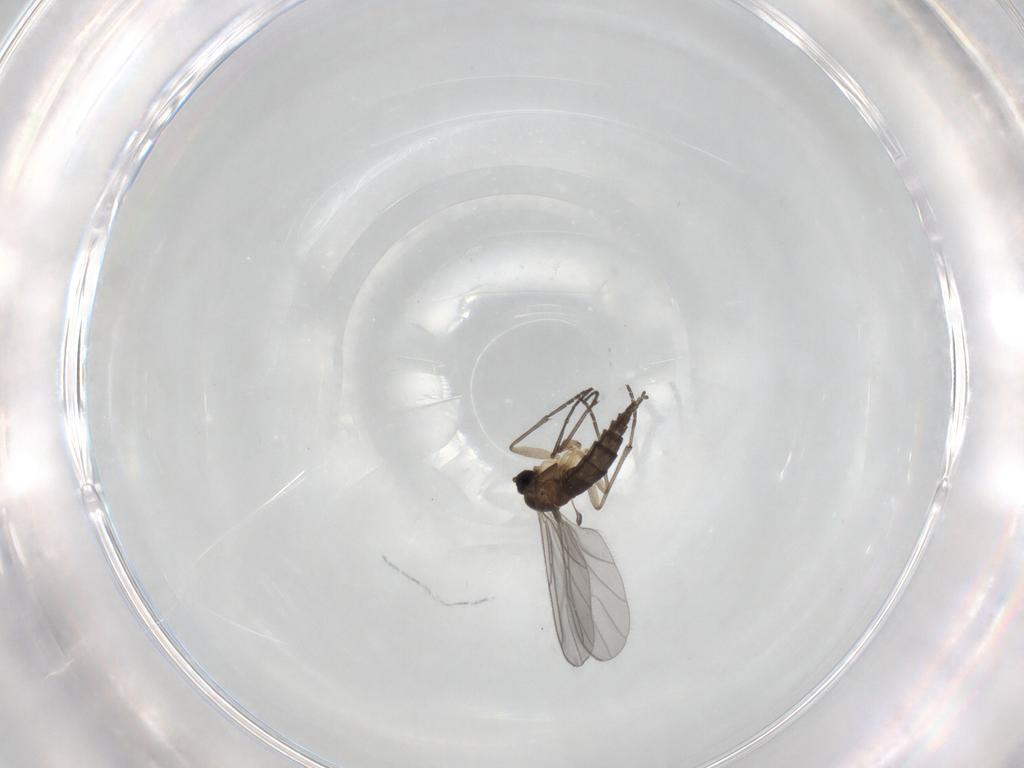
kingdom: Animalia
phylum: Arthropoda
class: Insecta
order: Diptera
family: Sciaridae
